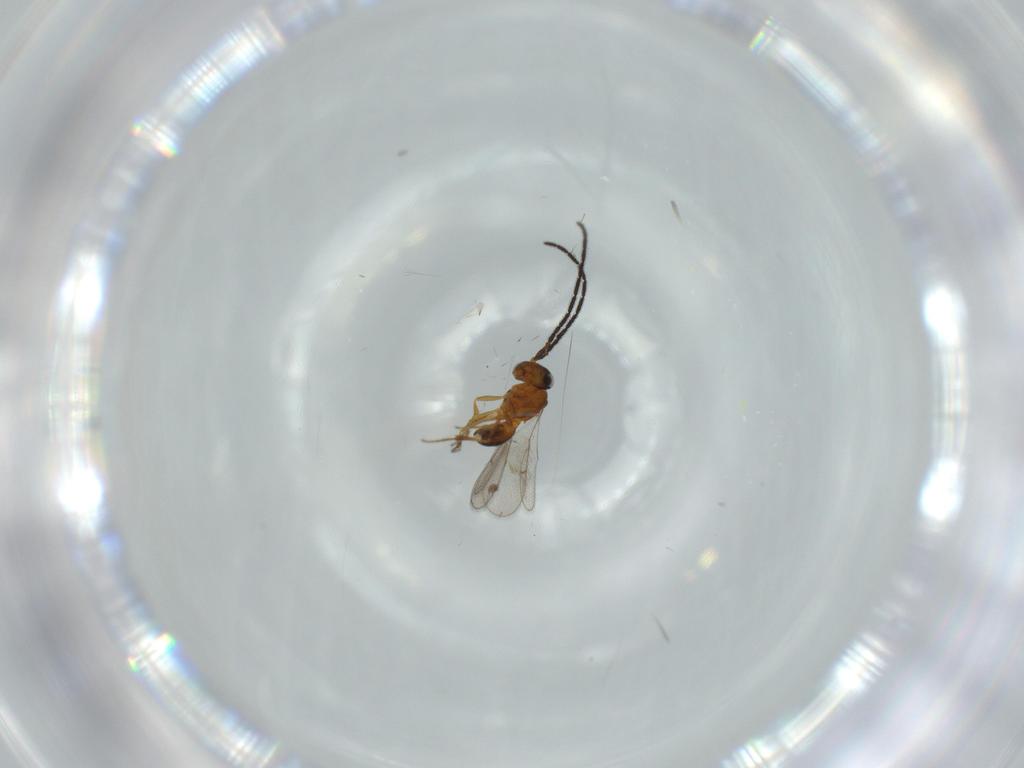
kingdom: Animalia
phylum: Arthropoda
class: Insecta
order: Hymenoptera
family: Scelionidae
